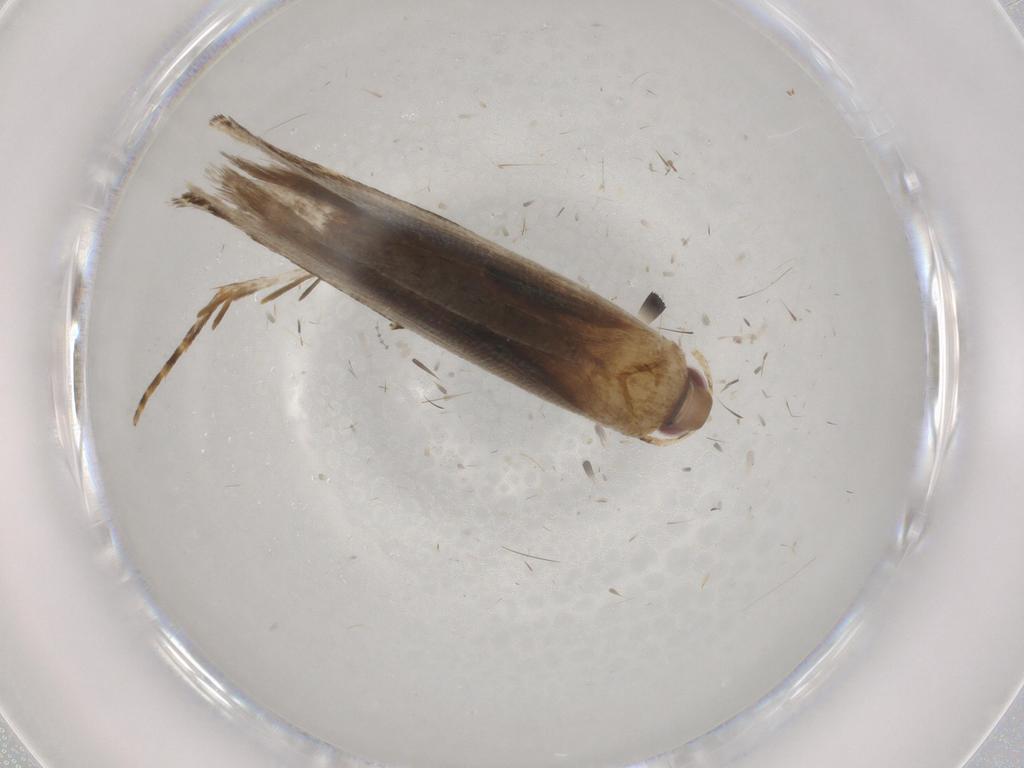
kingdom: Animalia
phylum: Arthropoda
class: Insecta
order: Lepidoptera
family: Gelechiidae
